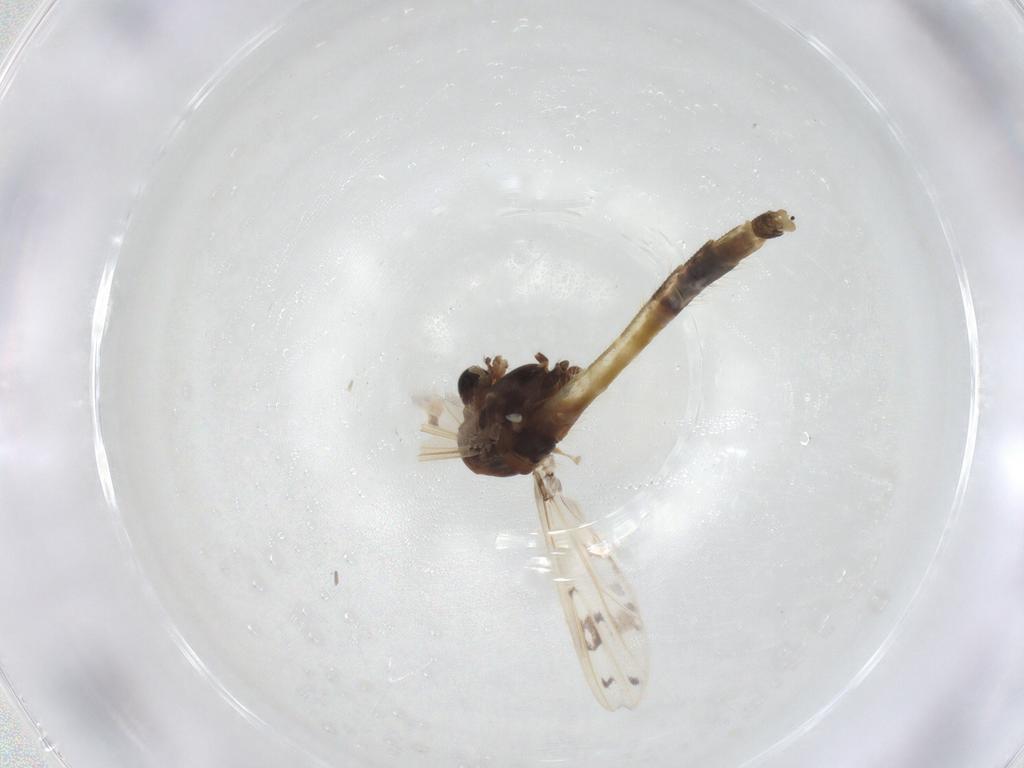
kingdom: Animalia
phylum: Arthropoda
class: Insecta
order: Diptera
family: Chironomidae
